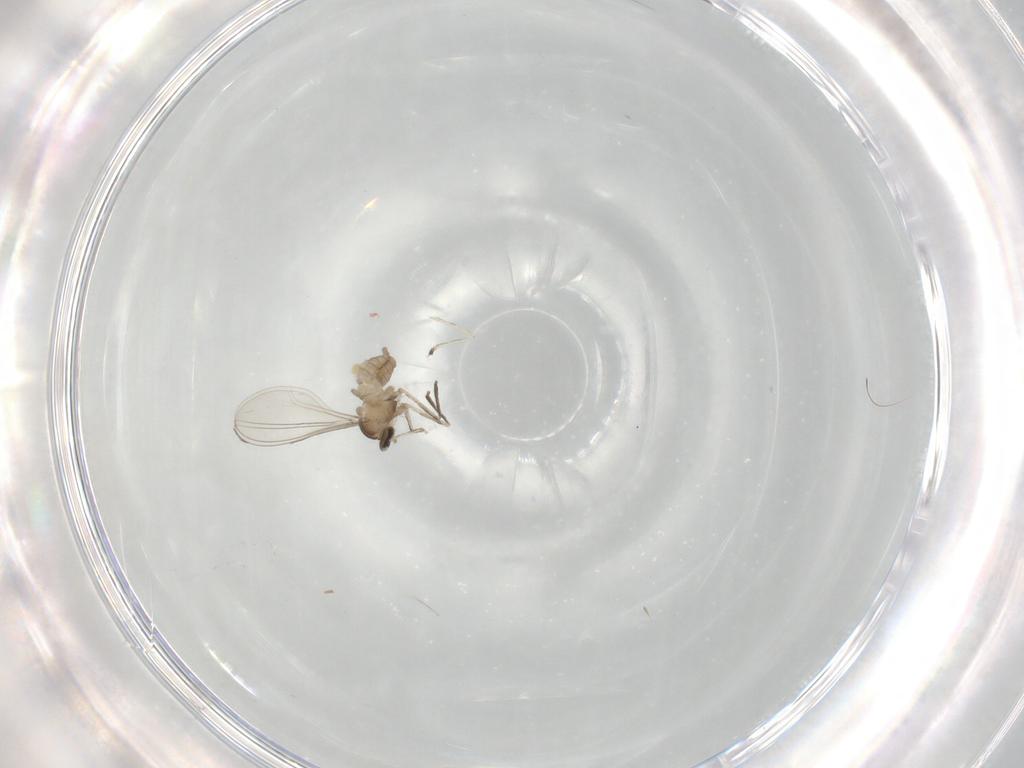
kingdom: Animalia
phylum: Arthropoda
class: Insecta
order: Diptera
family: Cecidomyiidae
